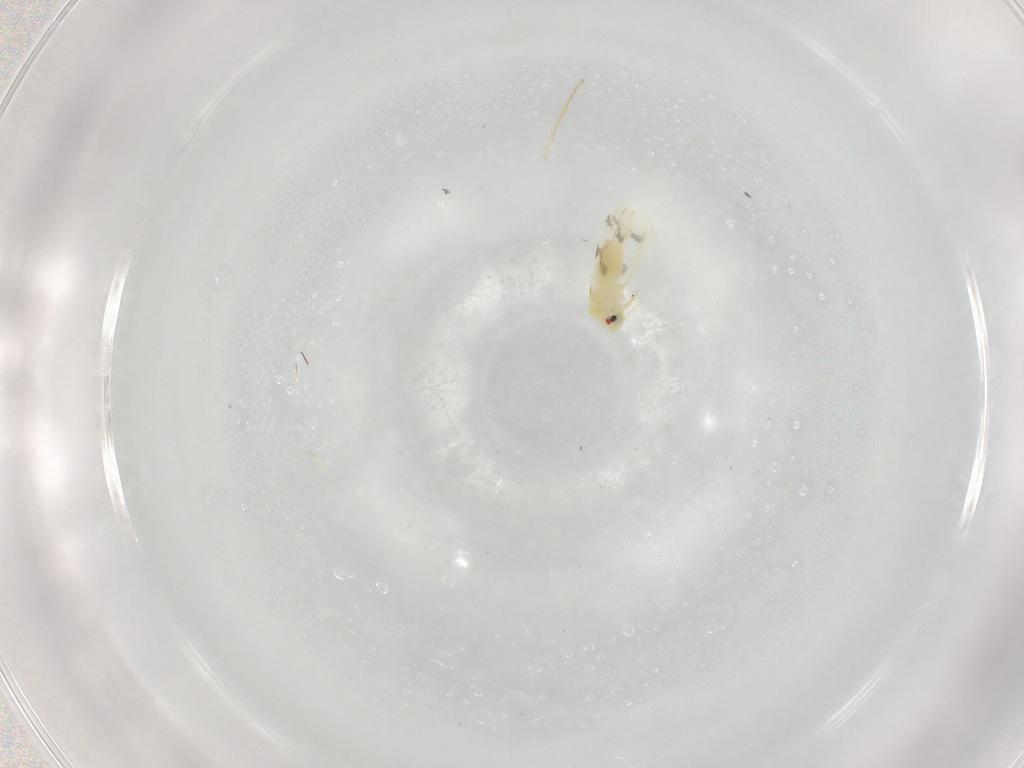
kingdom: Animalia
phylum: Arthropoda
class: Insecta
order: Hemiptera
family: Aleyrodidae
